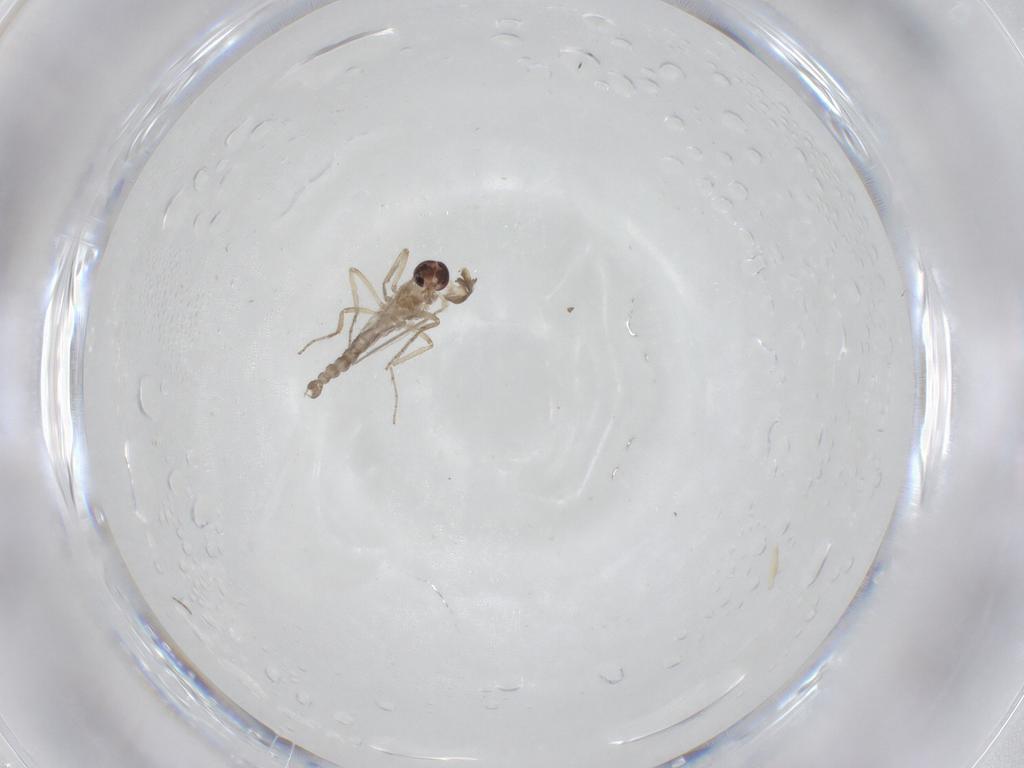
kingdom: Animalia
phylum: Arthropoda
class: Insecta
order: Diptera
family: Ceratopogonidae
